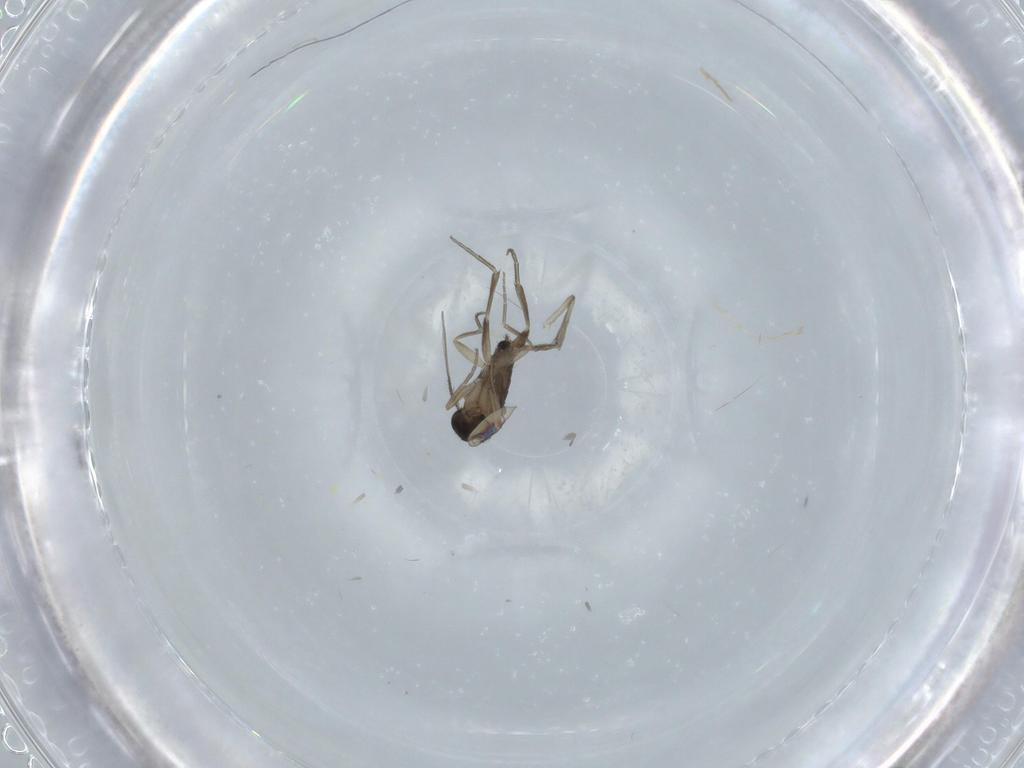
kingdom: Animalia
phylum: Arthropoda
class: Insecta
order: Diptera
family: Phoridae
